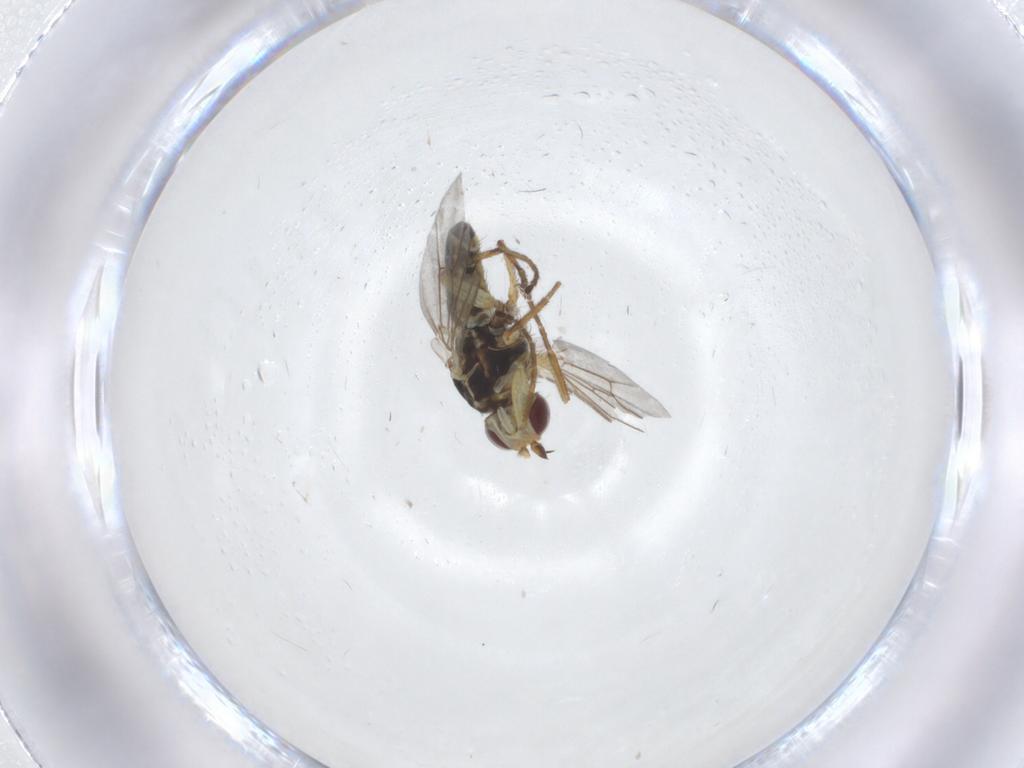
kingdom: Animalia
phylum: Arthropoda
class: Insecta
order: Diptera
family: Agromyzidae
